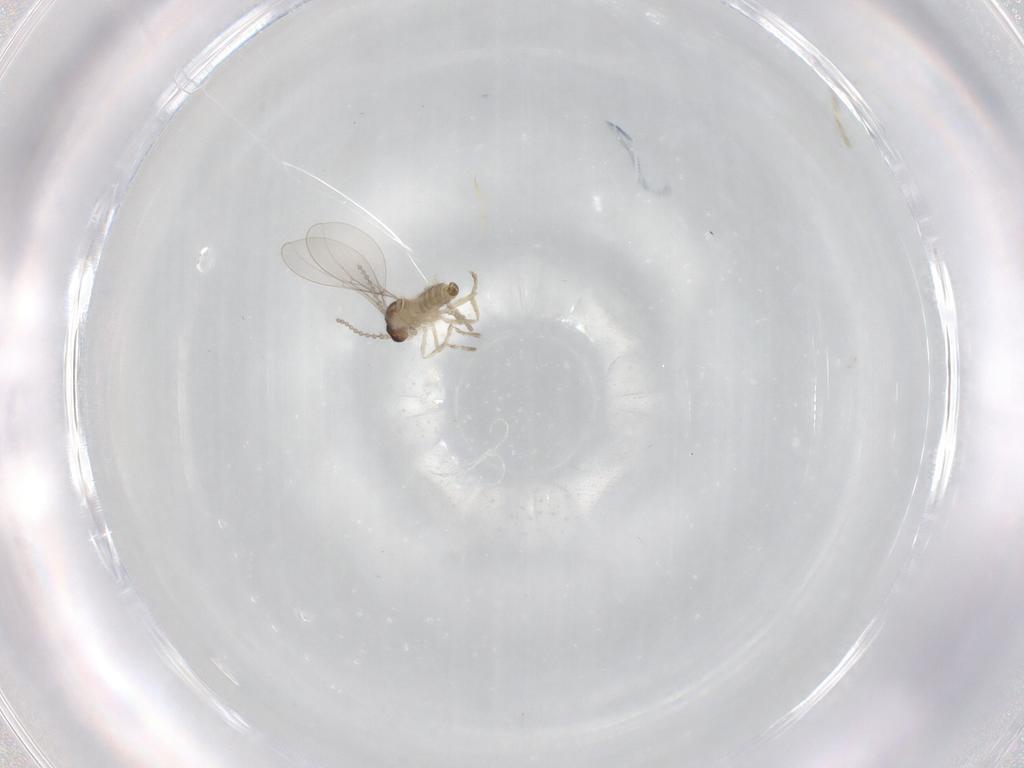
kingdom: Animalia
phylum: Arthropoda
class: Insecta
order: Diptera
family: Cecidomyiidae
